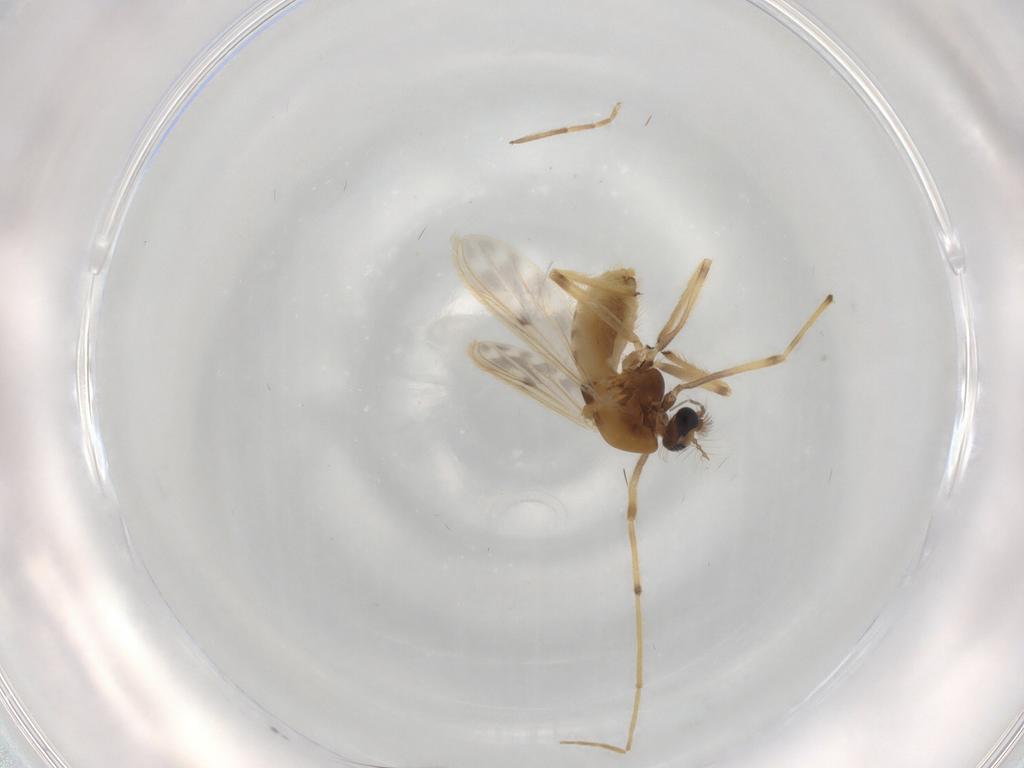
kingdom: Animalia
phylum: Arthropoda
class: Insecta
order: Diptera
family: Chironomidae
